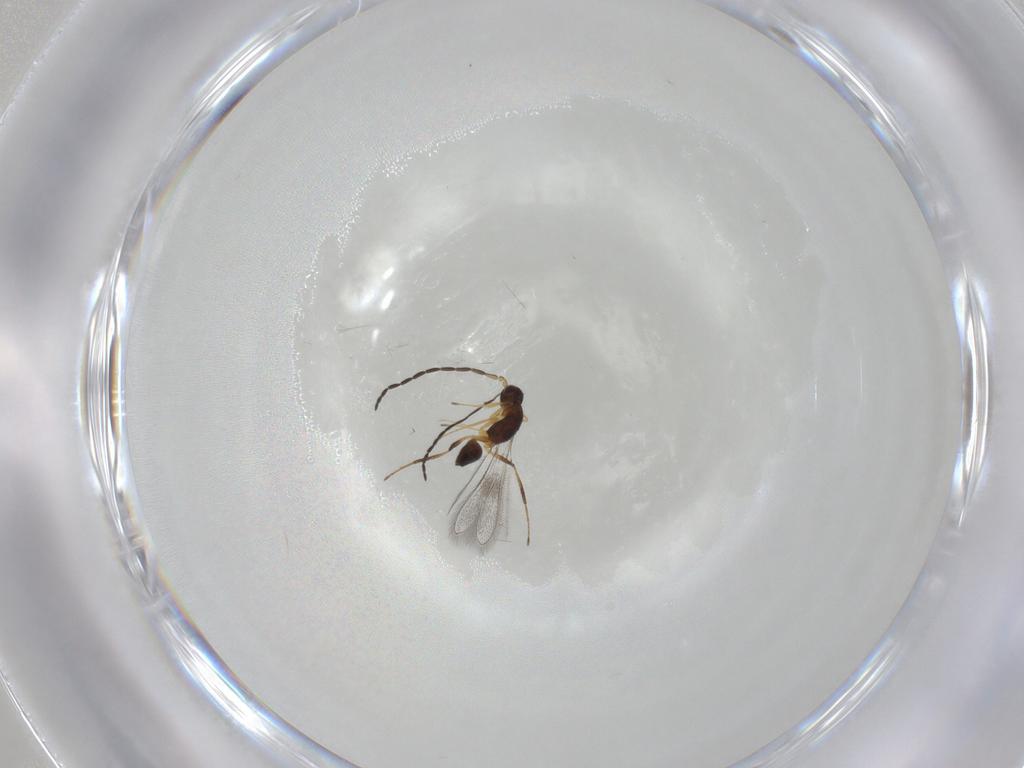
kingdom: Animalia
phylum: Arthropoda
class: Insecta
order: Hymenoptera
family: Mymaridae
